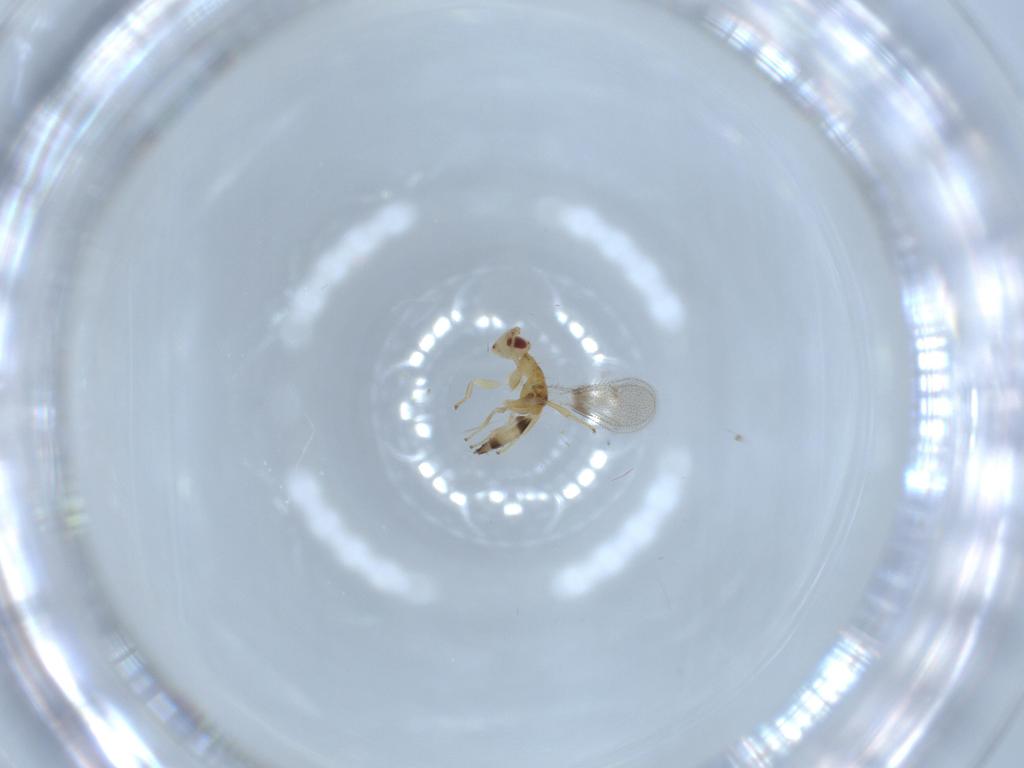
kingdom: Animalia
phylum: Arthropoda
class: Insecta
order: Hymenoptera
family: Torymidae
